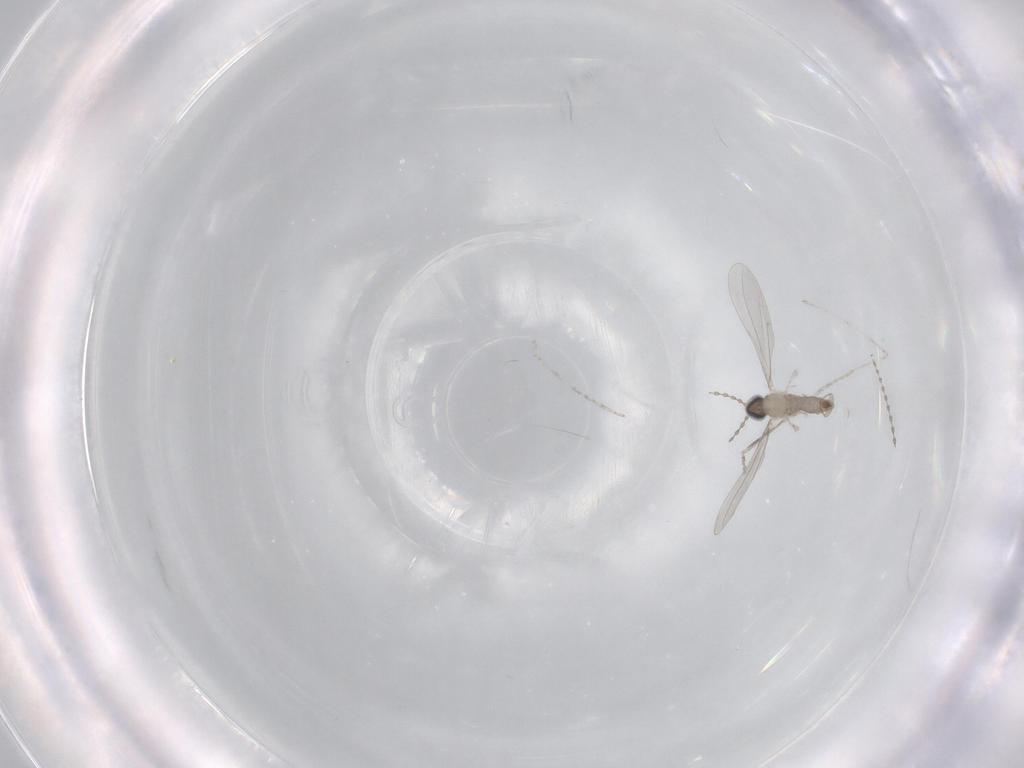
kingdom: Animalia
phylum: Arthropoda
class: Insecta
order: Diptera
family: Cecidomyiidae
